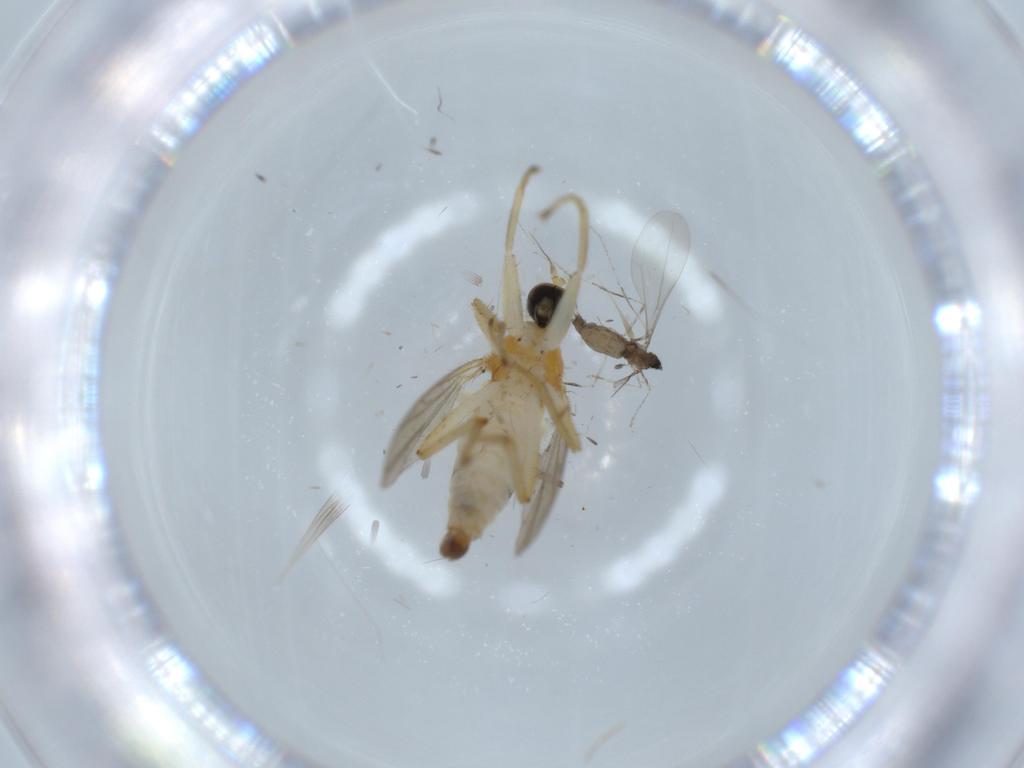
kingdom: Animalia
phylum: Arthropoda
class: Insecta
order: Diptera
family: Hybotidae
